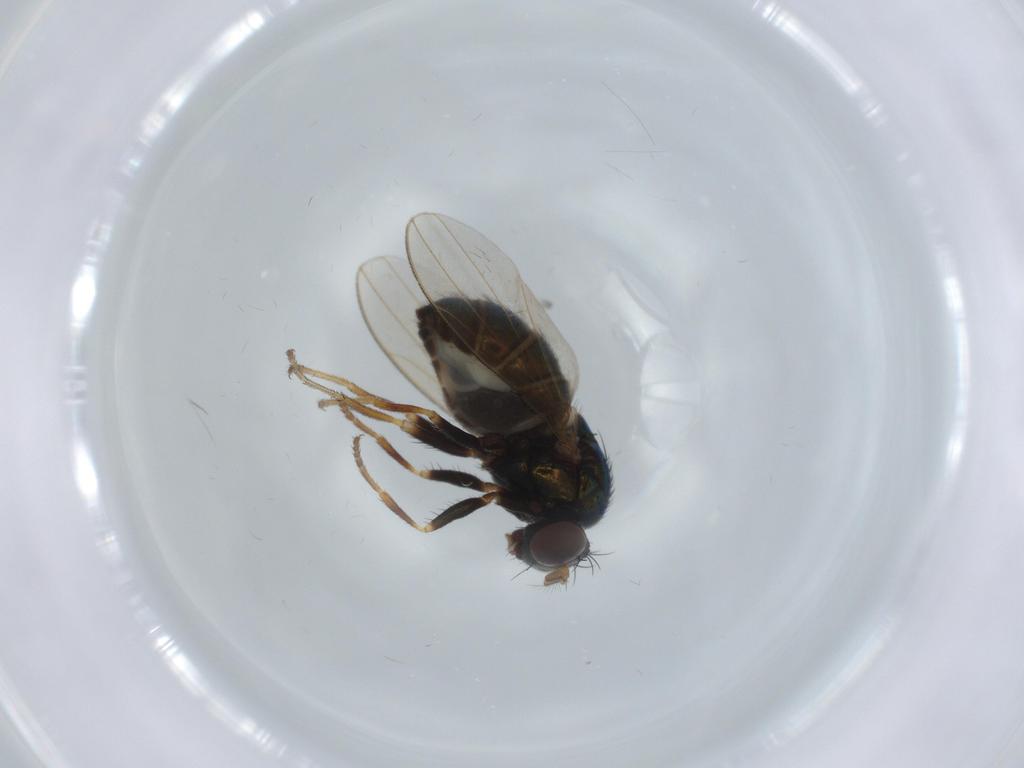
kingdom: Animalia
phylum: Arthropoda
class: Insecta
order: Diptera
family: Ephydridae
